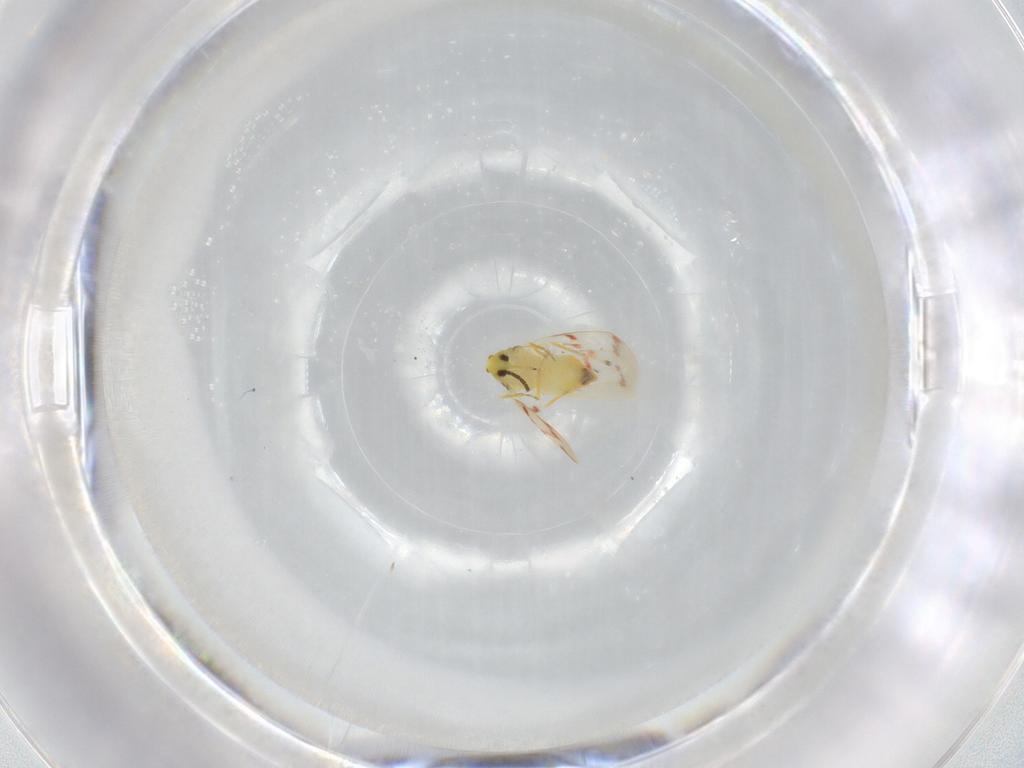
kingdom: Animalia
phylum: Arthropoda
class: Insecta
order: Hemiptera
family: Aleyrodidae
